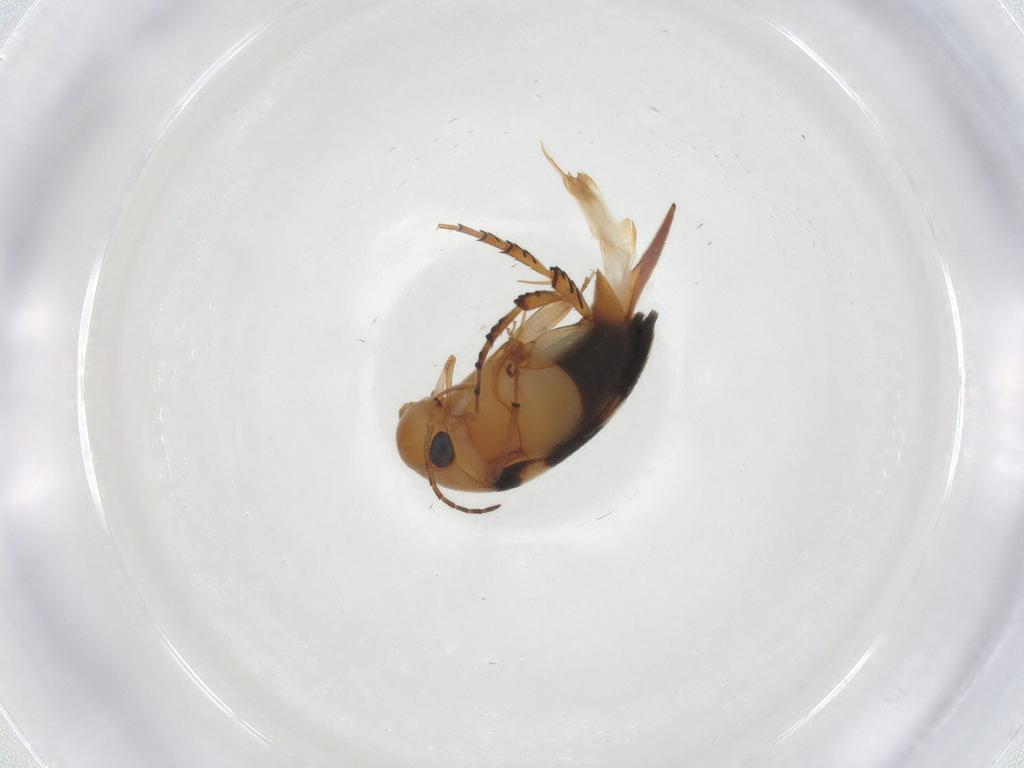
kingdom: Animalia
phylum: Arthropoda
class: Insecta
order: Coleoptera
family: Mordellidae
